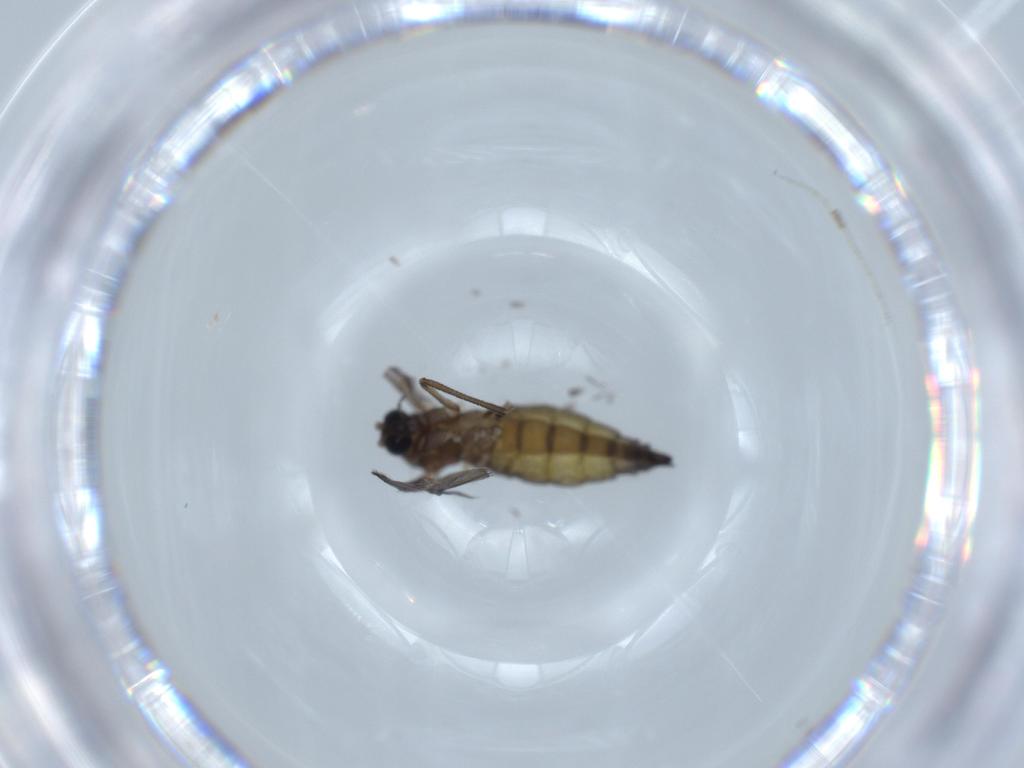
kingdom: Animalia
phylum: Arthropoda
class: Insecta
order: Diptera
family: Sciaridae
